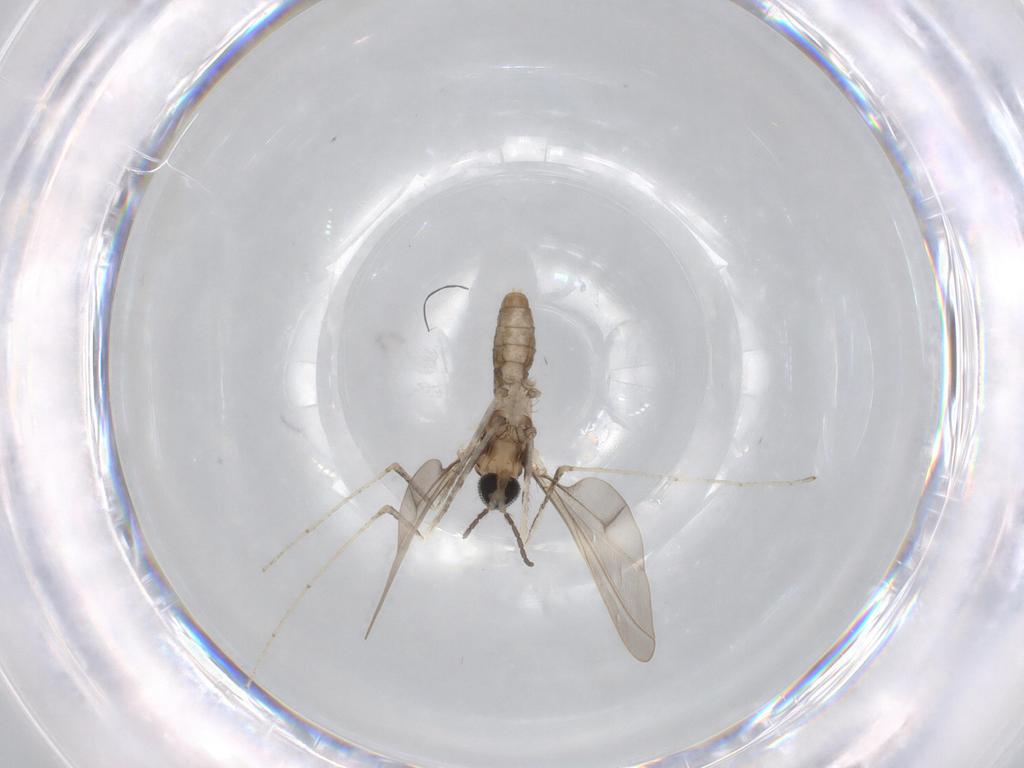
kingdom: Animalia
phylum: Arthropoda
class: Insecta
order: Diptera
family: Cecidomyiidae
